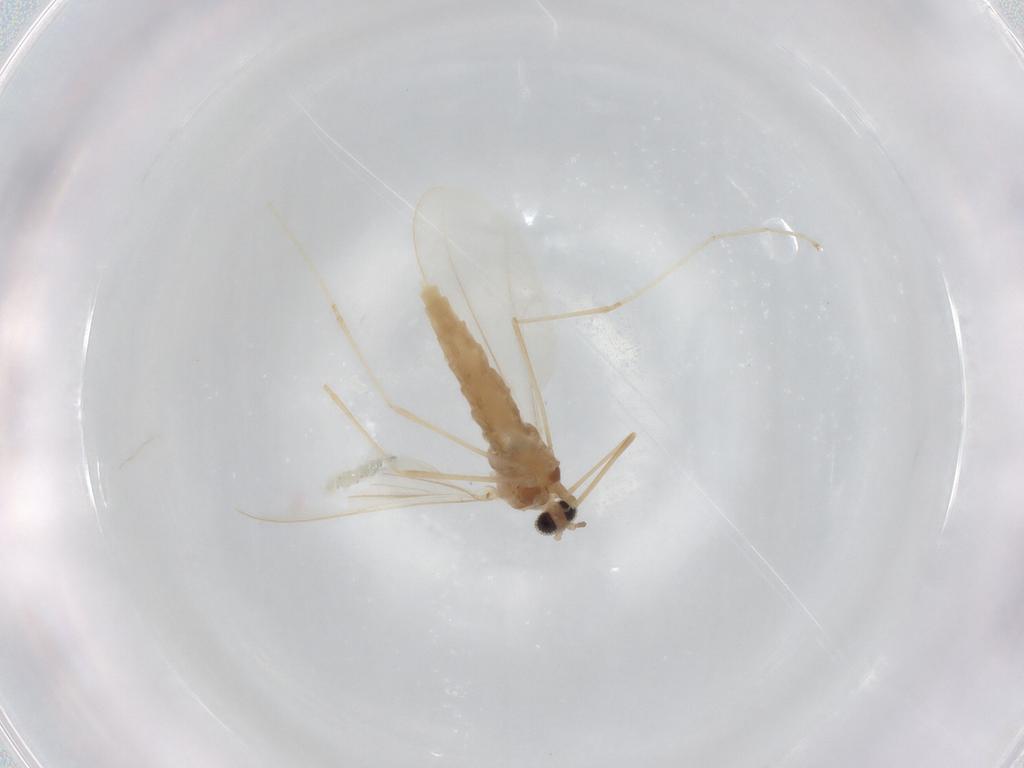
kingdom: Animalia
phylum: Arthropoda
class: Insecta
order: Diptera
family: Cecidomyiidae
